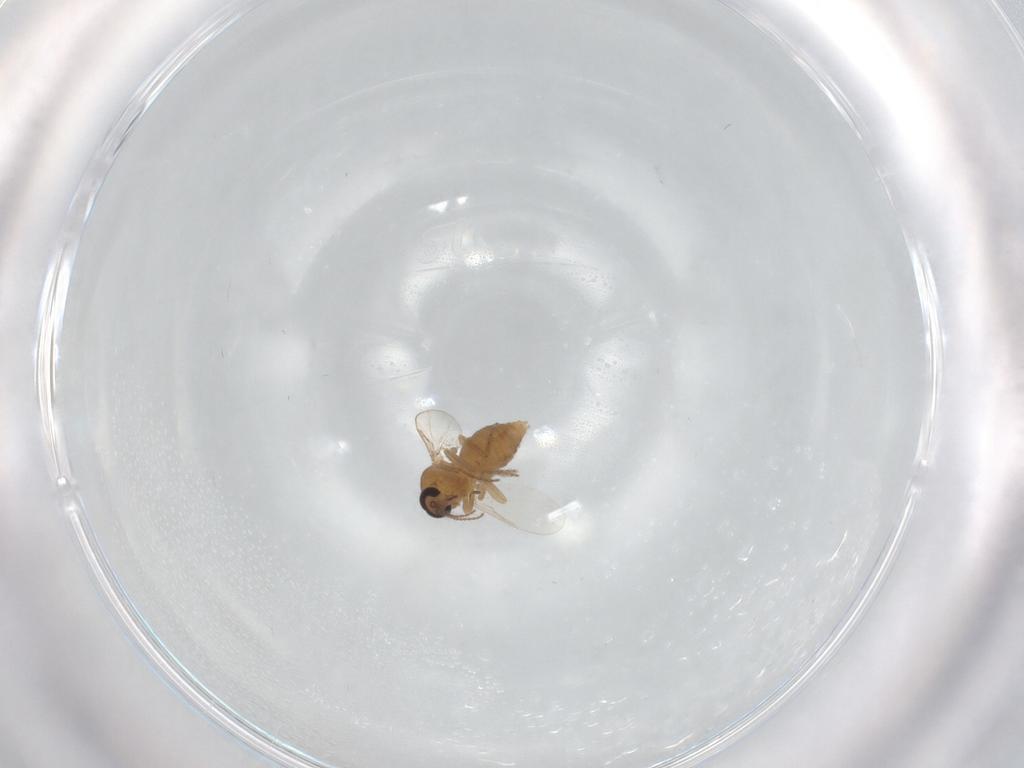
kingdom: Animalia
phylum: Arthropoda
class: Insecta
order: Diptera
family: Ceratopogonidae
